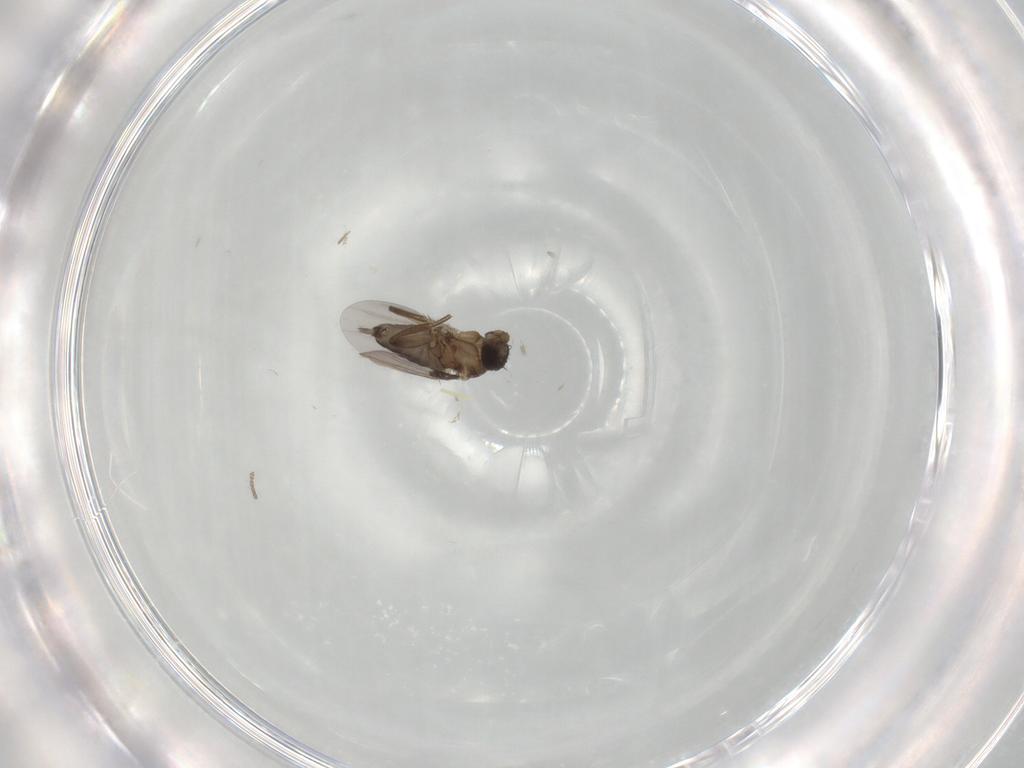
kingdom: Animalia
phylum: Arthropoda
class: Insecta
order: Diptera
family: Phoridae
